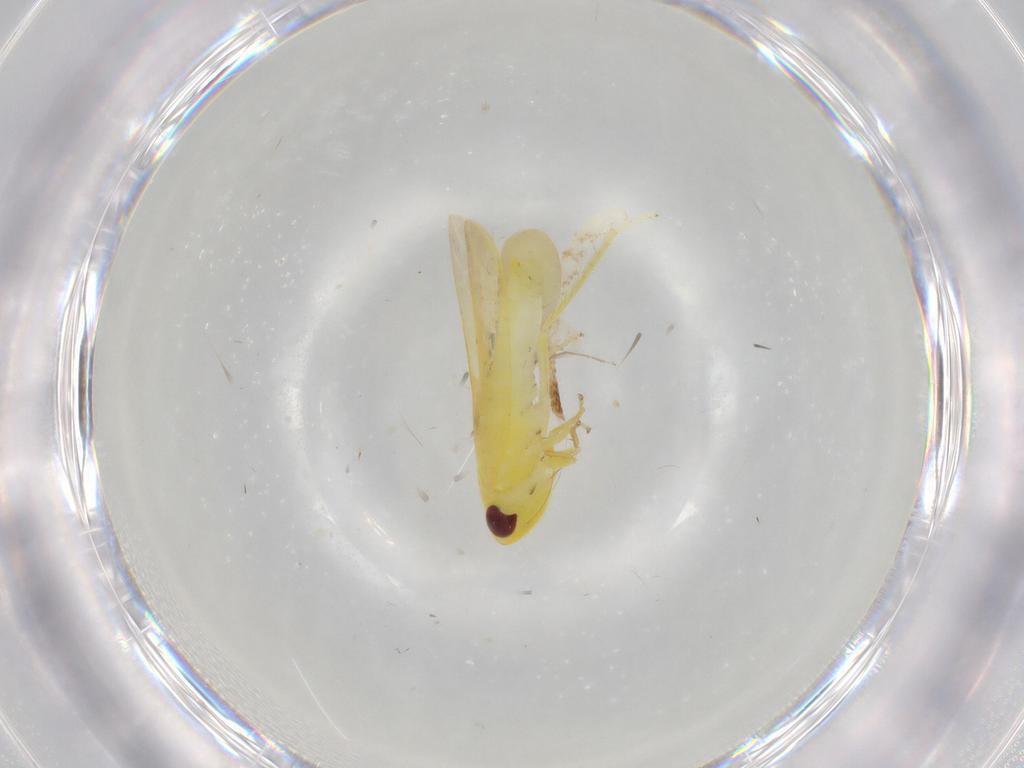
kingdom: Animalia
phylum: Arthropoda
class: Insecta
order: Hemiptera
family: Cicadellidae
